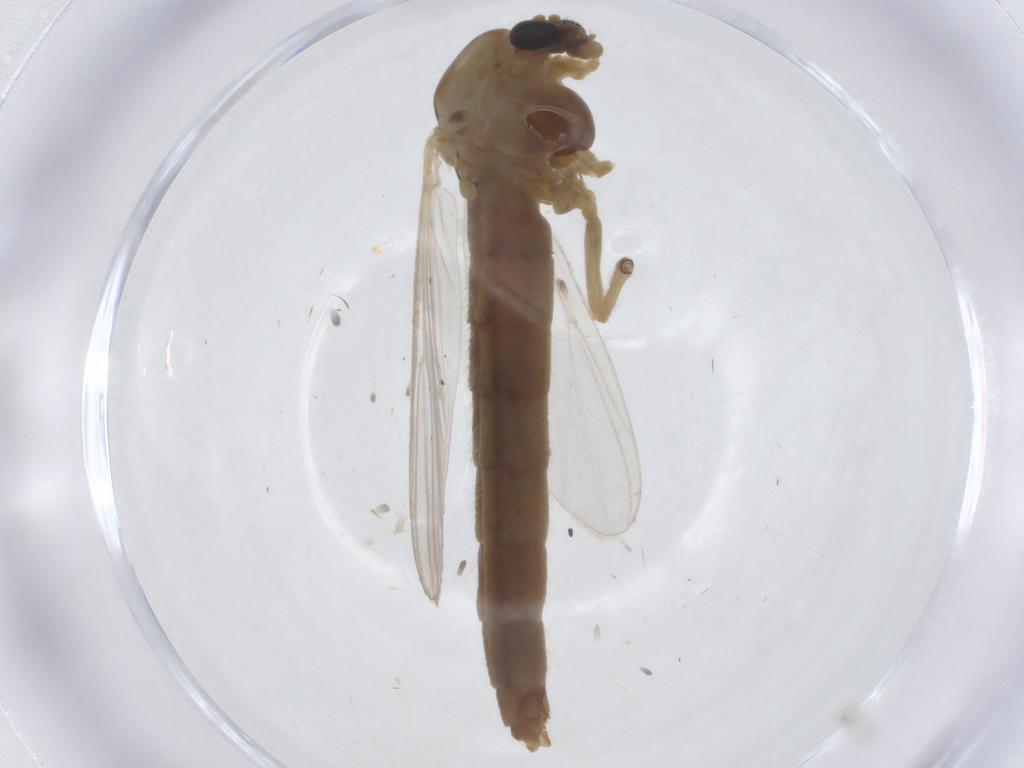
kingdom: Animalia
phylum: Arthropoda
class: Insecta
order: Diptera
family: Chironomidae
